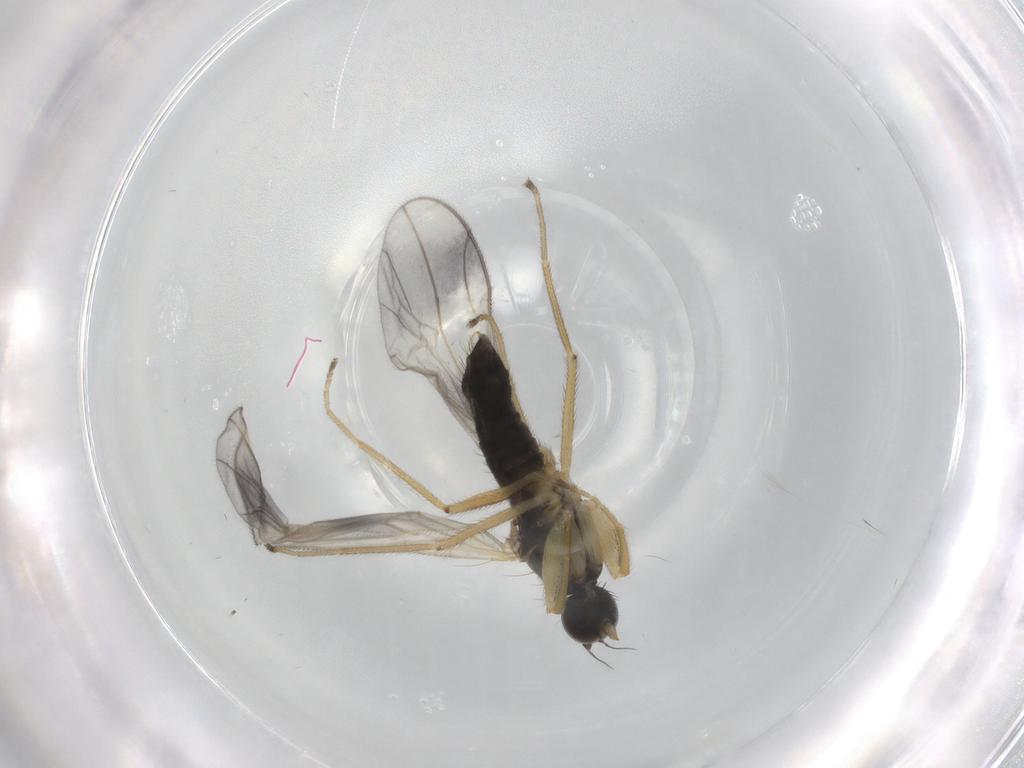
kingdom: Animalia
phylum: Arthropoda
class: Insecta
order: Diptera
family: Empididae
